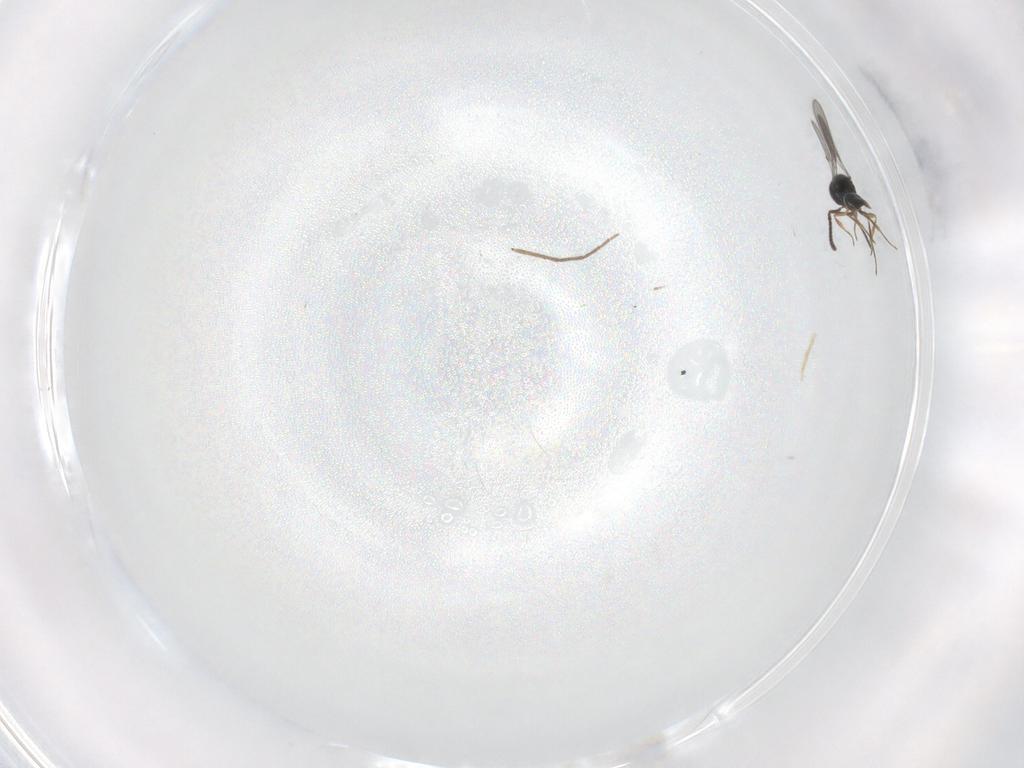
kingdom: Animalia
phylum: Arthropoda
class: Insecta
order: Hymenoptera
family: Scelionidae
